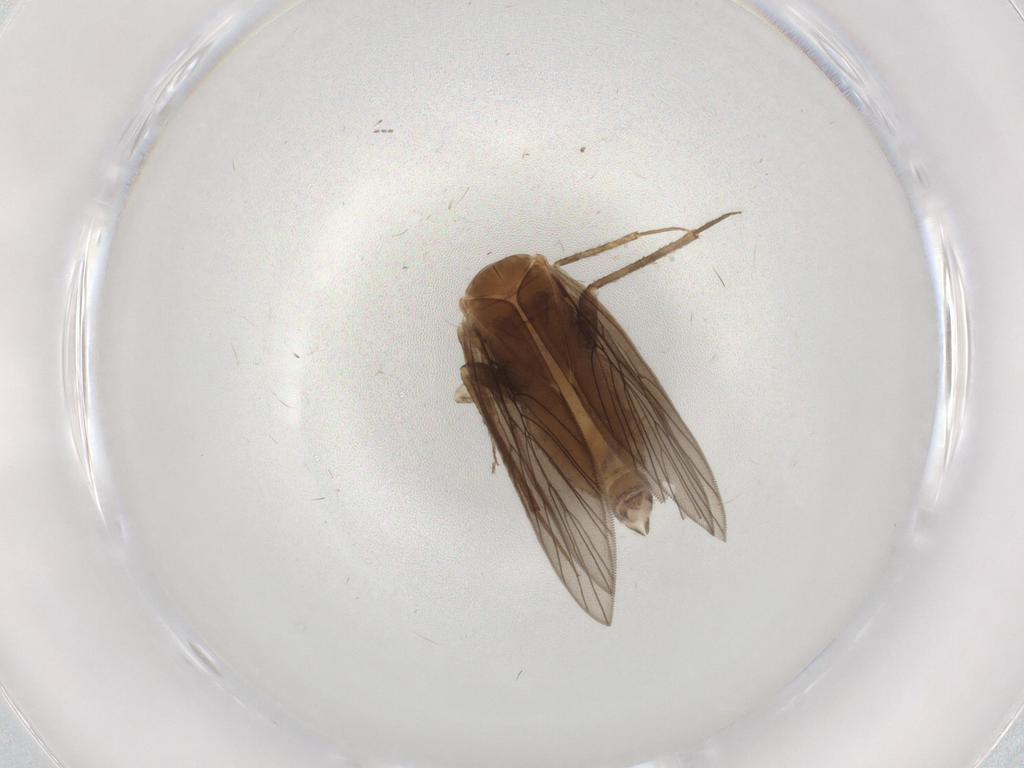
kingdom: Animalia
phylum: Arthropoda
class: Insecta
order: Psocodea
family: Lepidopsocidae
